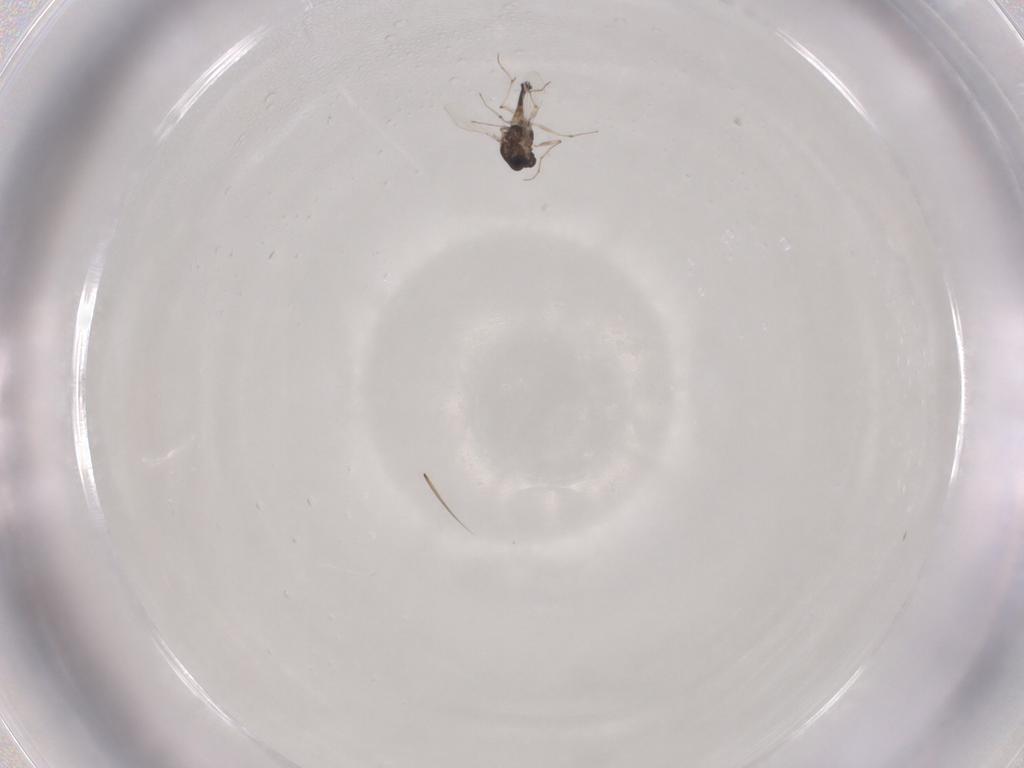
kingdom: Animalia
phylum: Arthropoda
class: Insecta
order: Diptera
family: Chironomidae
